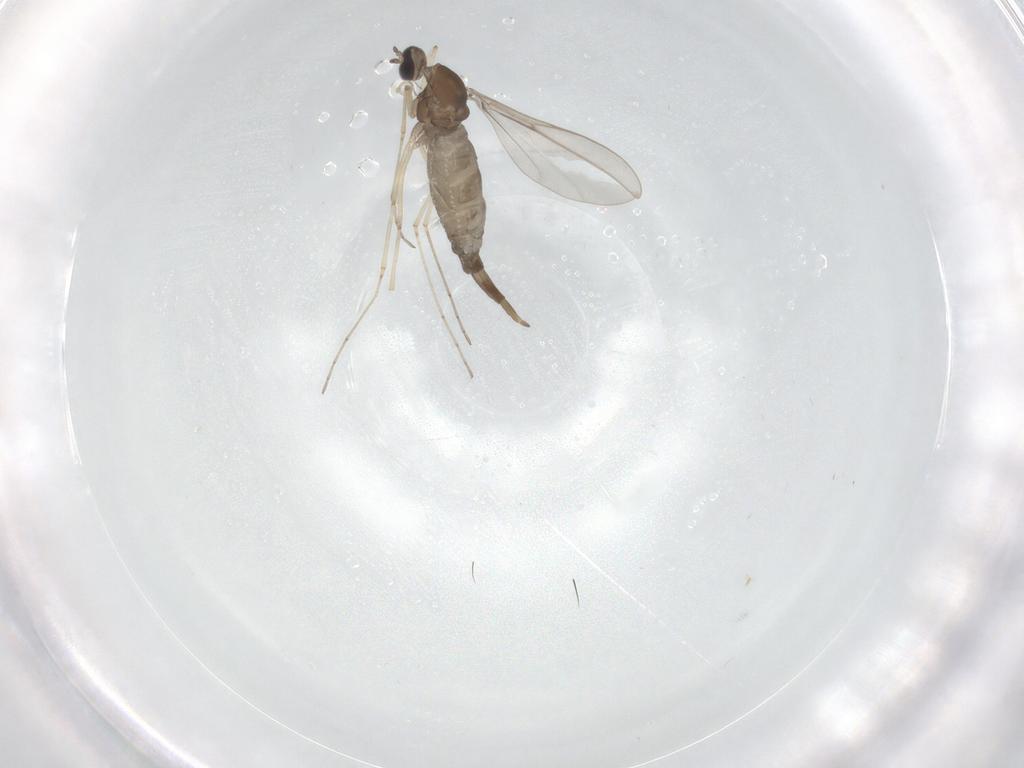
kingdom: Animalia
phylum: Arthropoda
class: Insecta
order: Diptera
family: Cecidomyiidae
